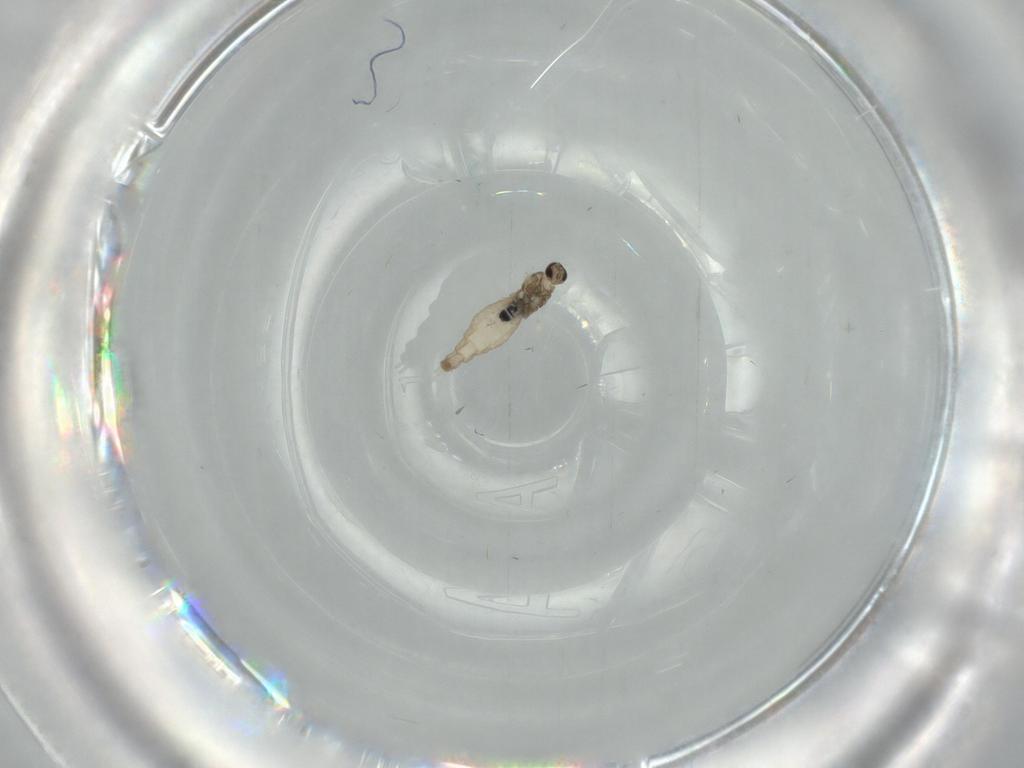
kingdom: Animalia
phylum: Arthropoda
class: Insecta
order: Diptera
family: Cecidomyiidae
